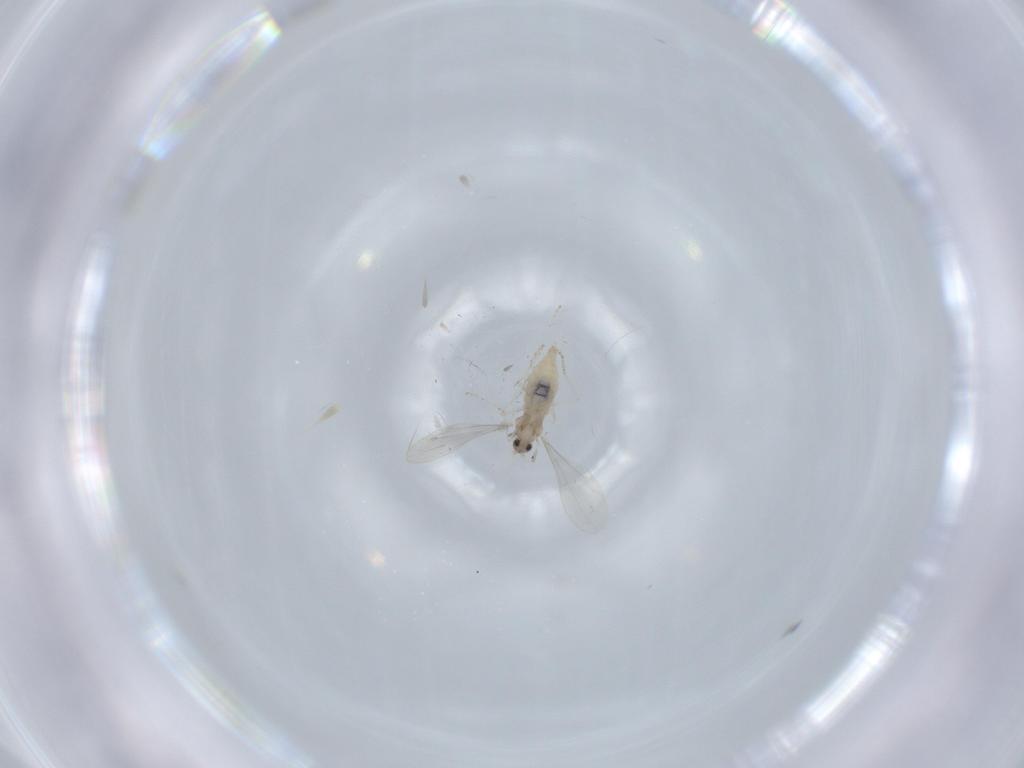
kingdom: Animalia
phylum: Arthropoda
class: Insecta
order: Diptera
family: Cecidomyiidae
